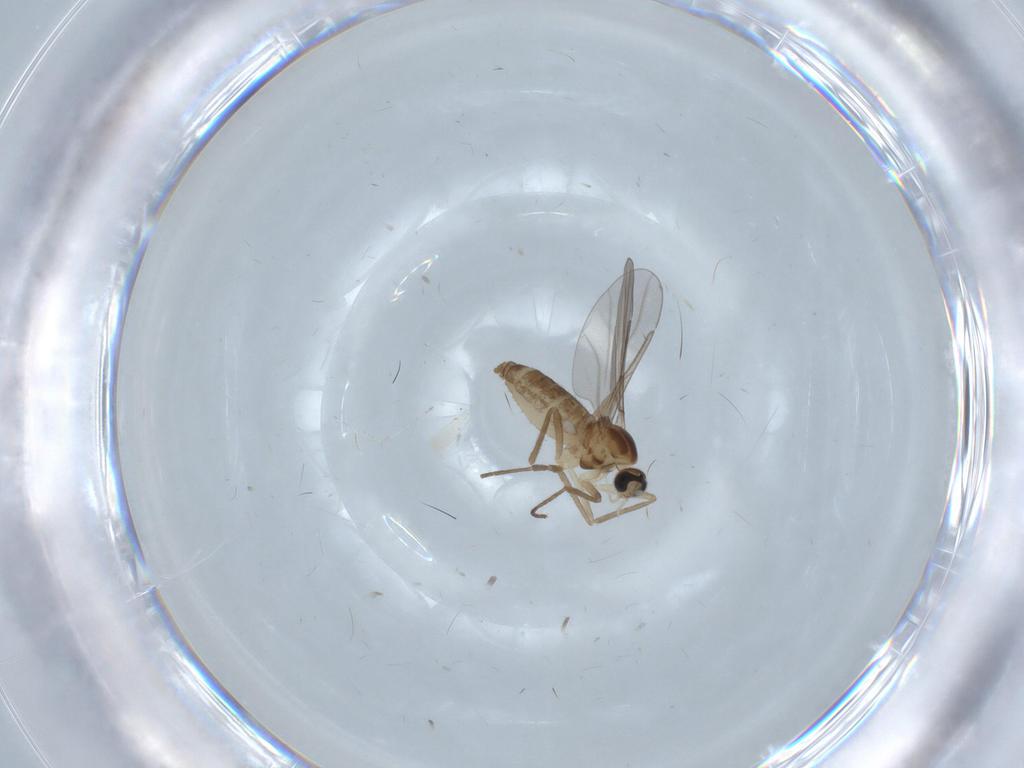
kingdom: Animalia
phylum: Arthropoda
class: Insecta
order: Diptera
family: Cecidomyiidae
